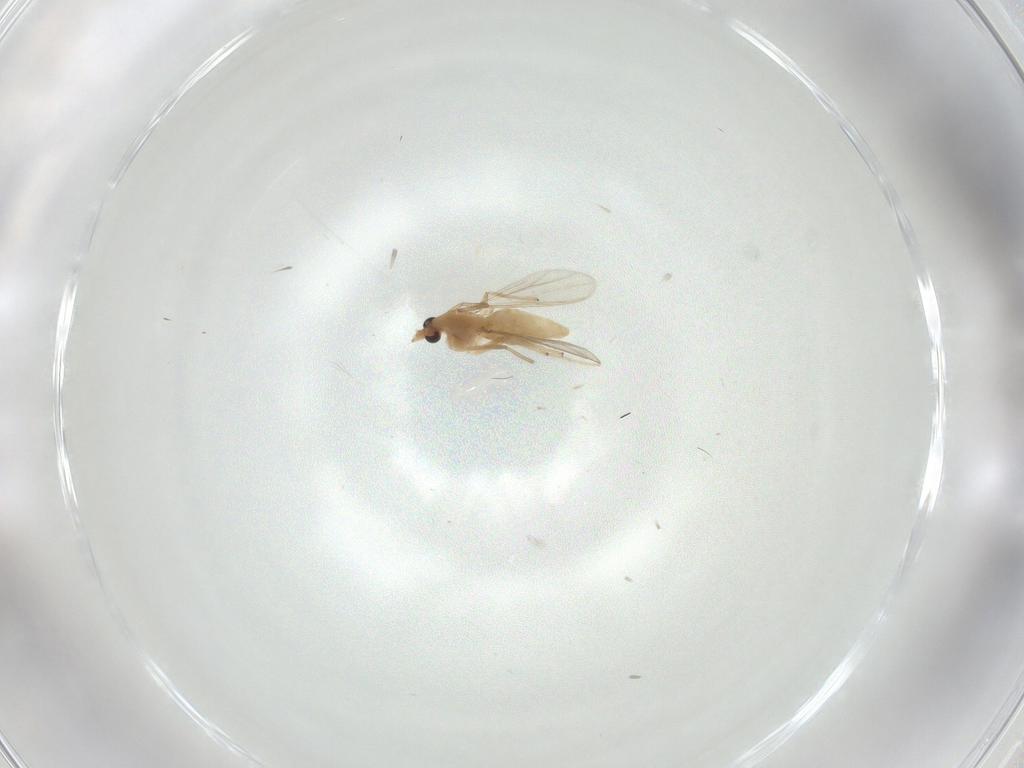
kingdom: Animalia
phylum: Arthropoda
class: Insecta
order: Diptera
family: Chironomidae
